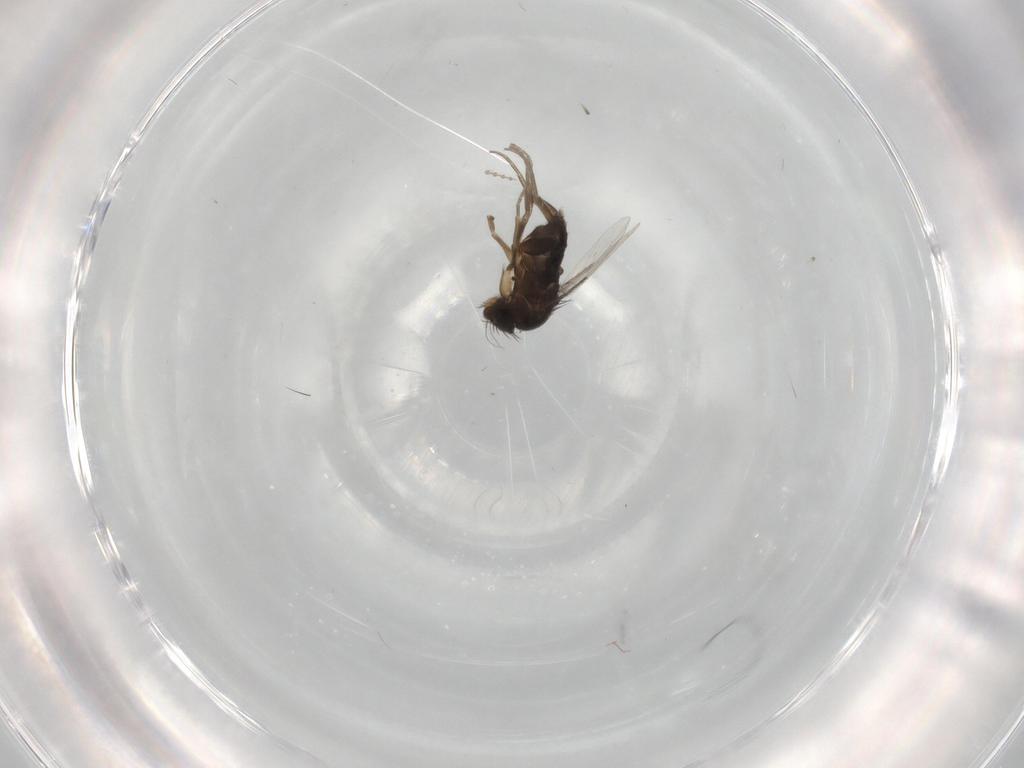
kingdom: Animalia
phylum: Arthropoda
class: Insecta
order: Diptera
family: Phoridae
